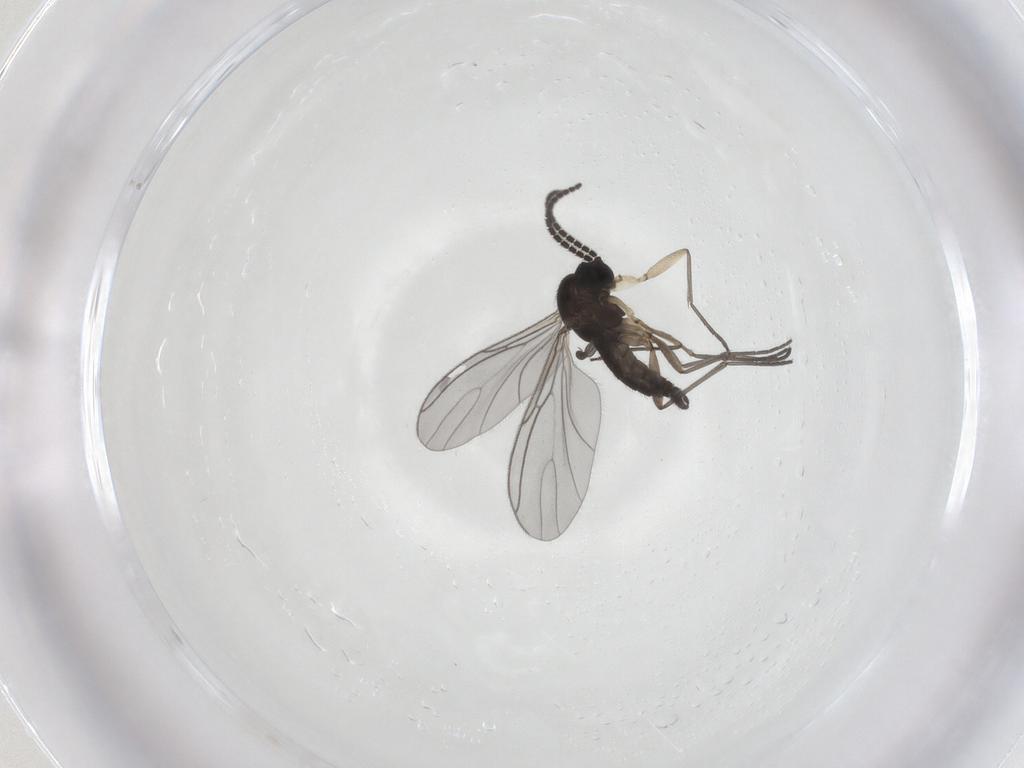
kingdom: Animalia
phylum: Arthropoda
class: Insecta
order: Diptera
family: Sciaridae
